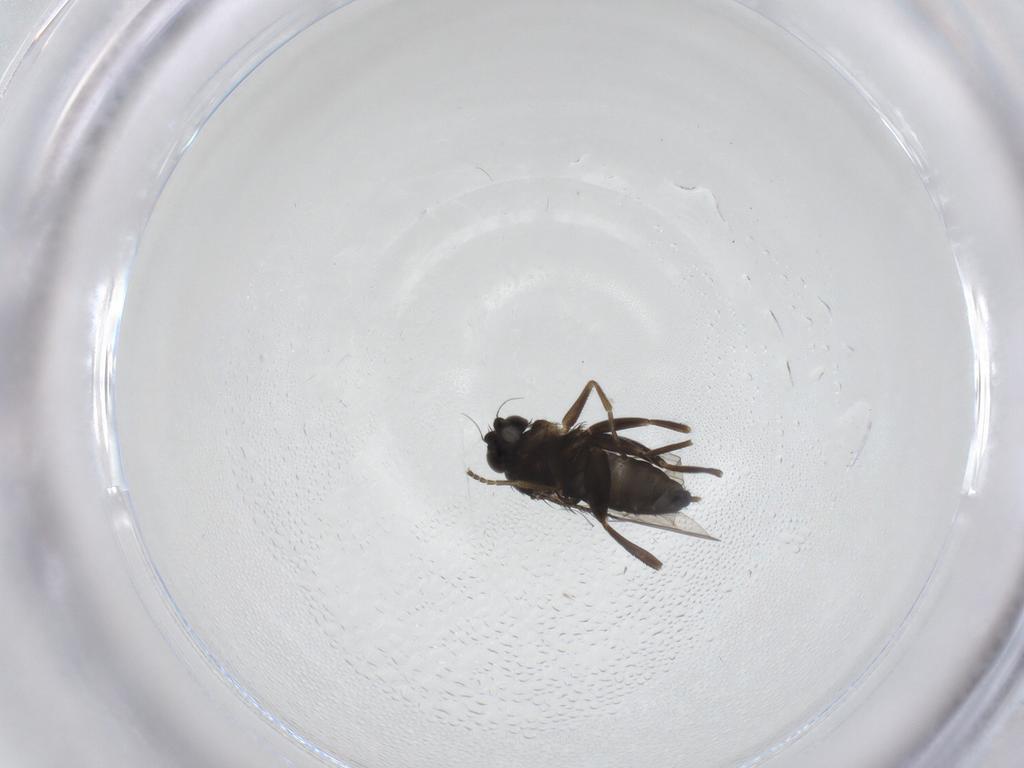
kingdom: Animalia
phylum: Arthropoda
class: Insecta
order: Diptera
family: Phoridae
